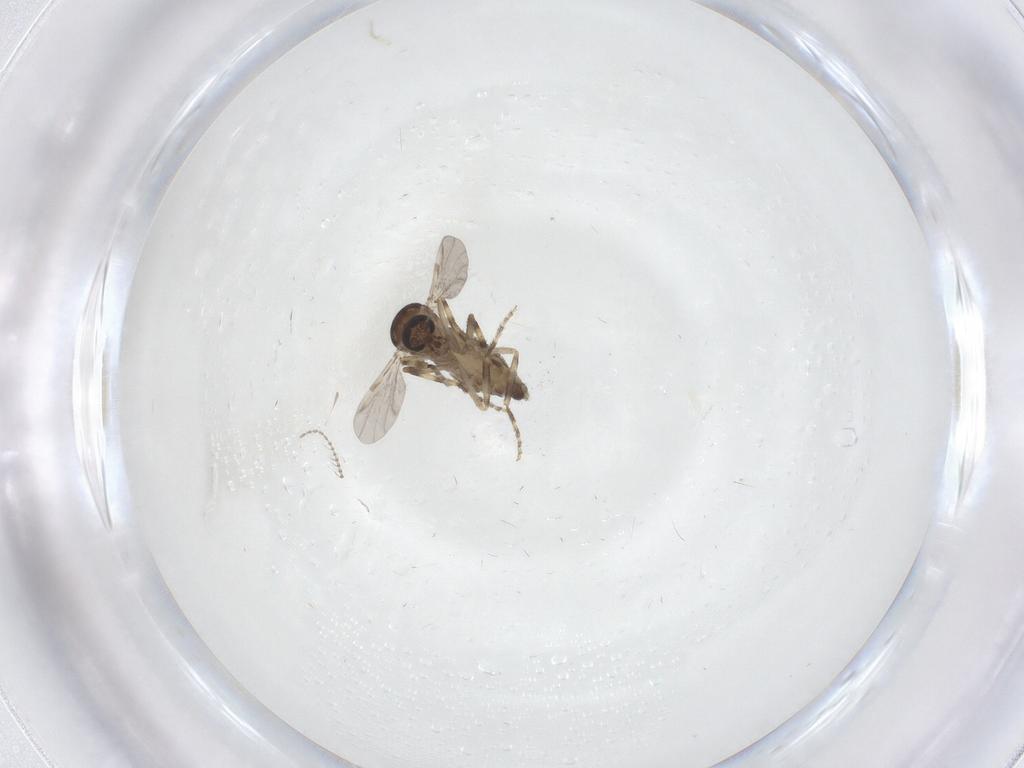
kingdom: Animalia
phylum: Arthropoda
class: Insecta
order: Diptera
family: Ceratopogonidae
